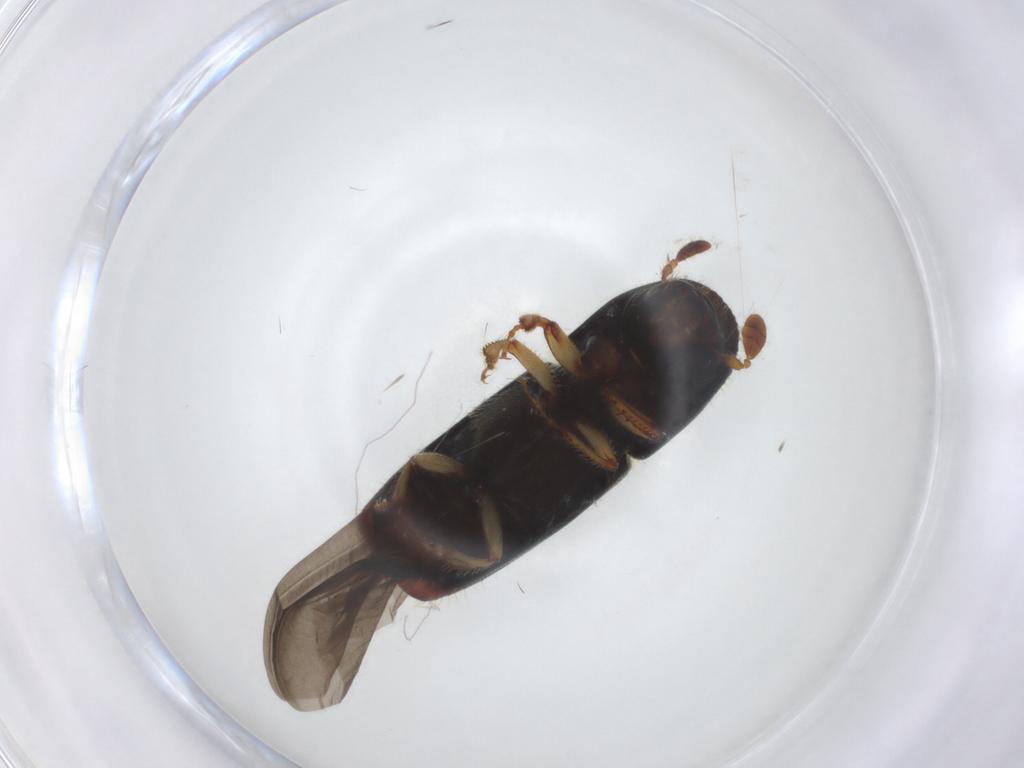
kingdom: Animalia
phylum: Arthropoda
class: Insecta
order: Coleoptera
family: Curculionidae
